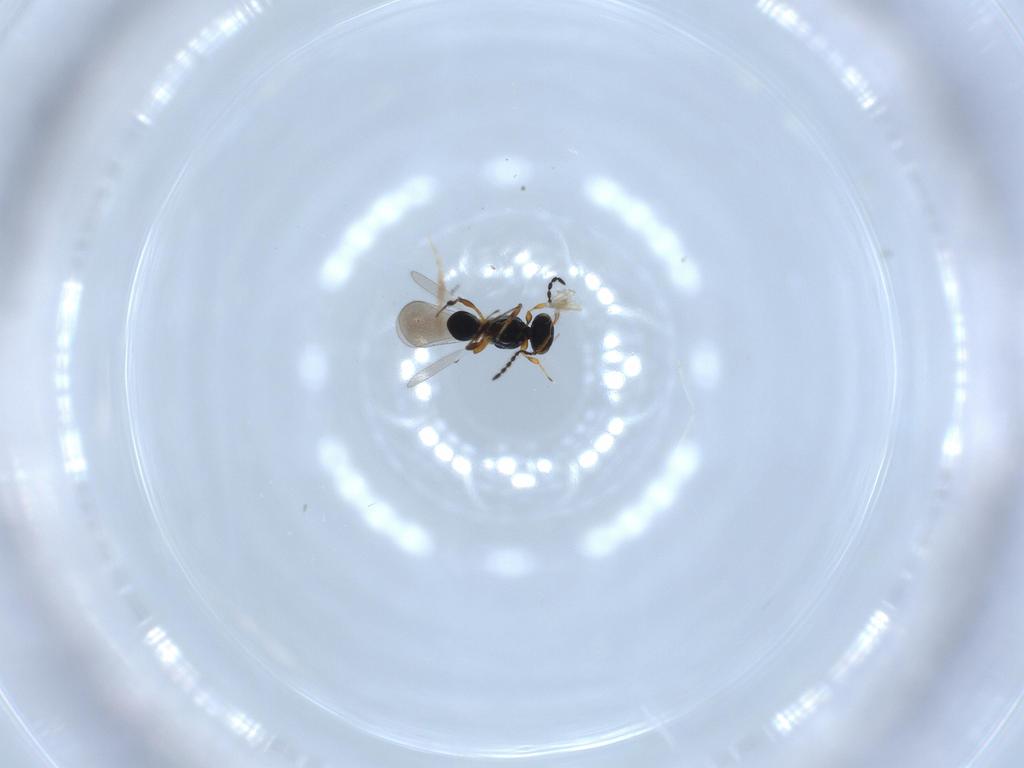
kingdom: Animalia
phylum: Arthropoda
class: Insecta
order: Hymenoptera
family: Platygastridae
